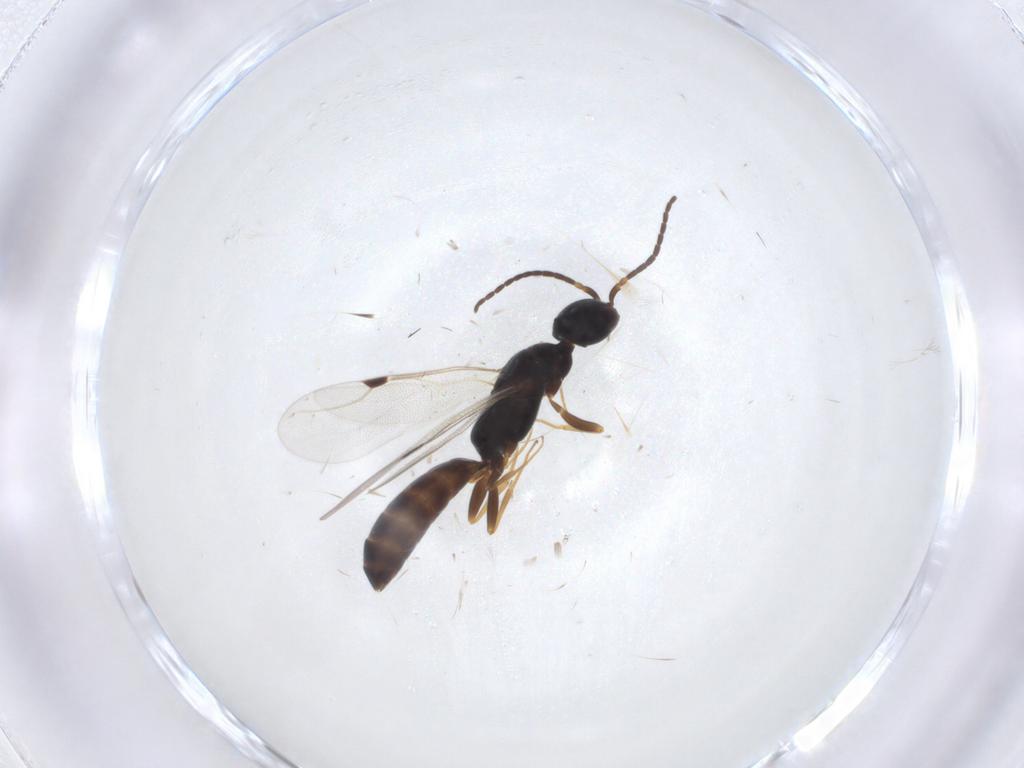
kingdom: Animalia
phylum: Arthropoda
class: Insecta
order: Hymenoptera
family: Bethylidae
